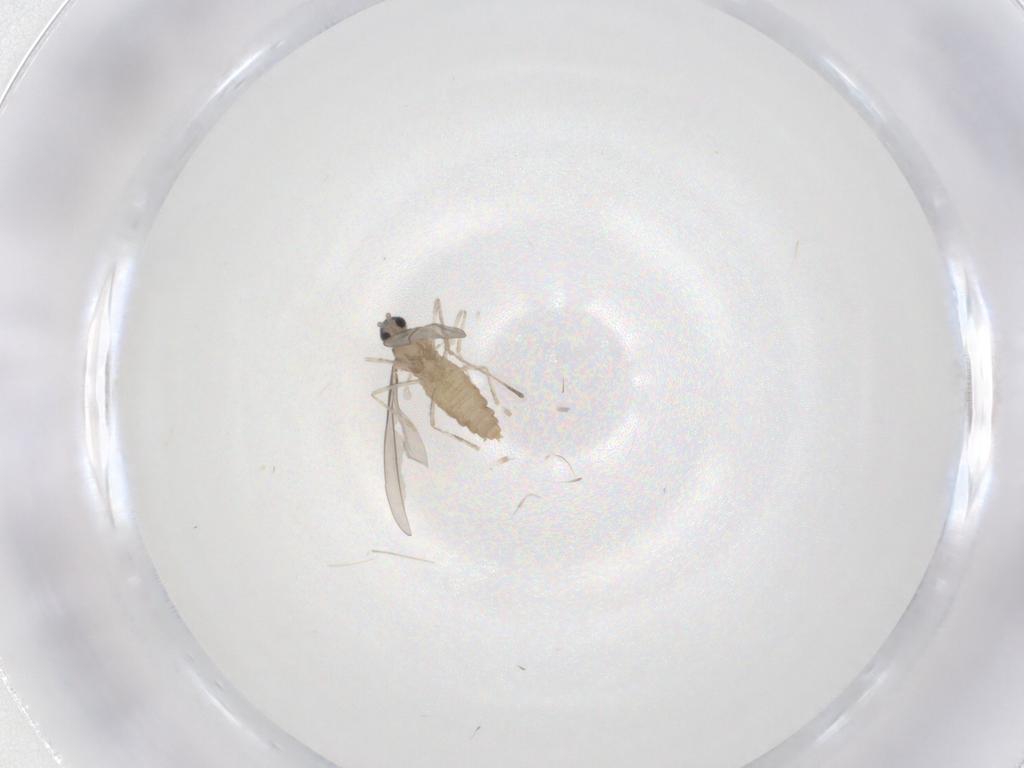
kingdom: Animalia
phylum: Arthropoda
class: Insecta
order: Diptera
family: Cecidomyiidae
